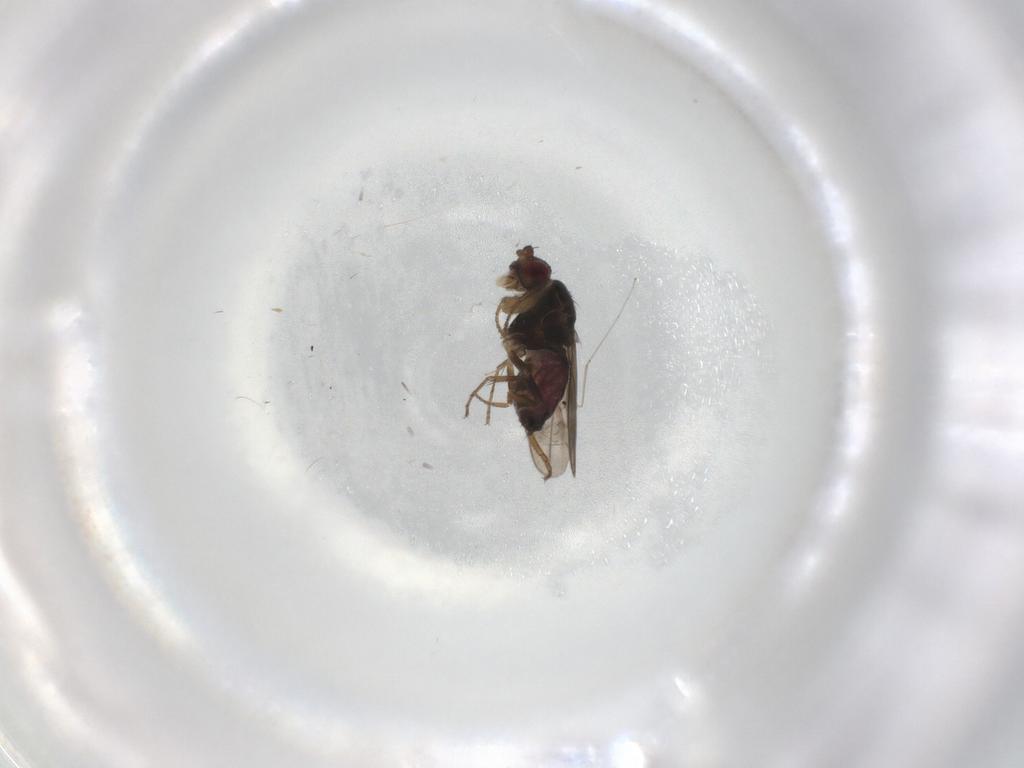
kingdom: Animalia
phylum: Arthropoda
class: Insecta
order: Diptera
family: Sphaeroceridae
